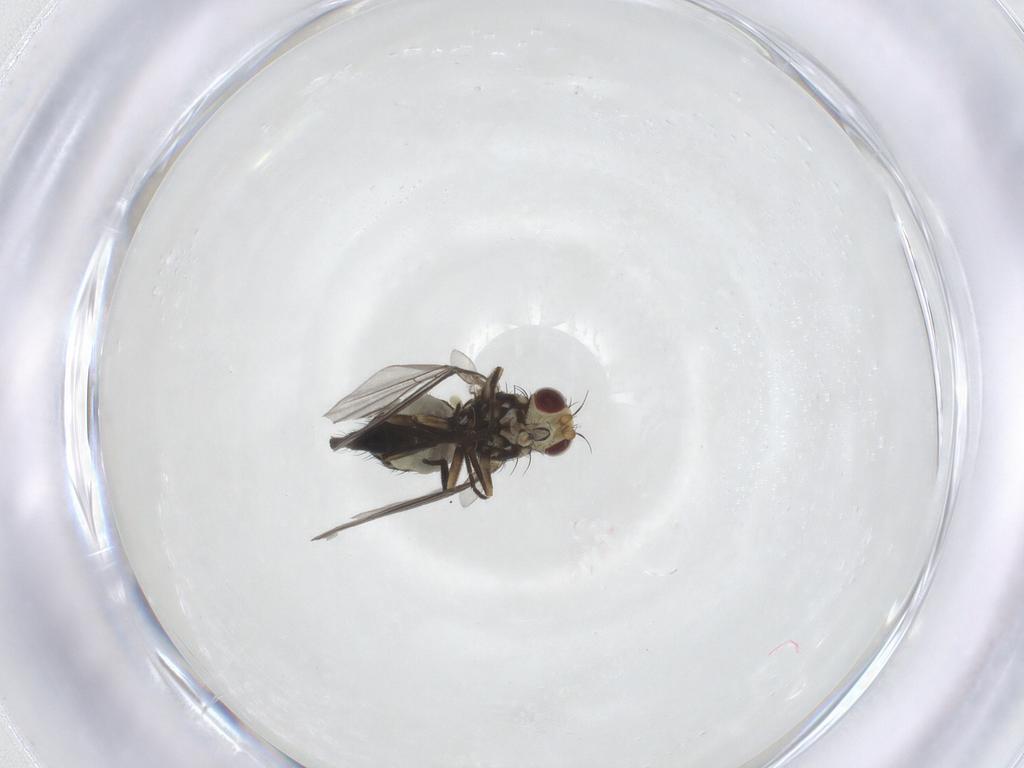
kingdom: Animalia
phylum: Arthropoda
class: Insecta
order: Diptera
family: Agromyzidae
